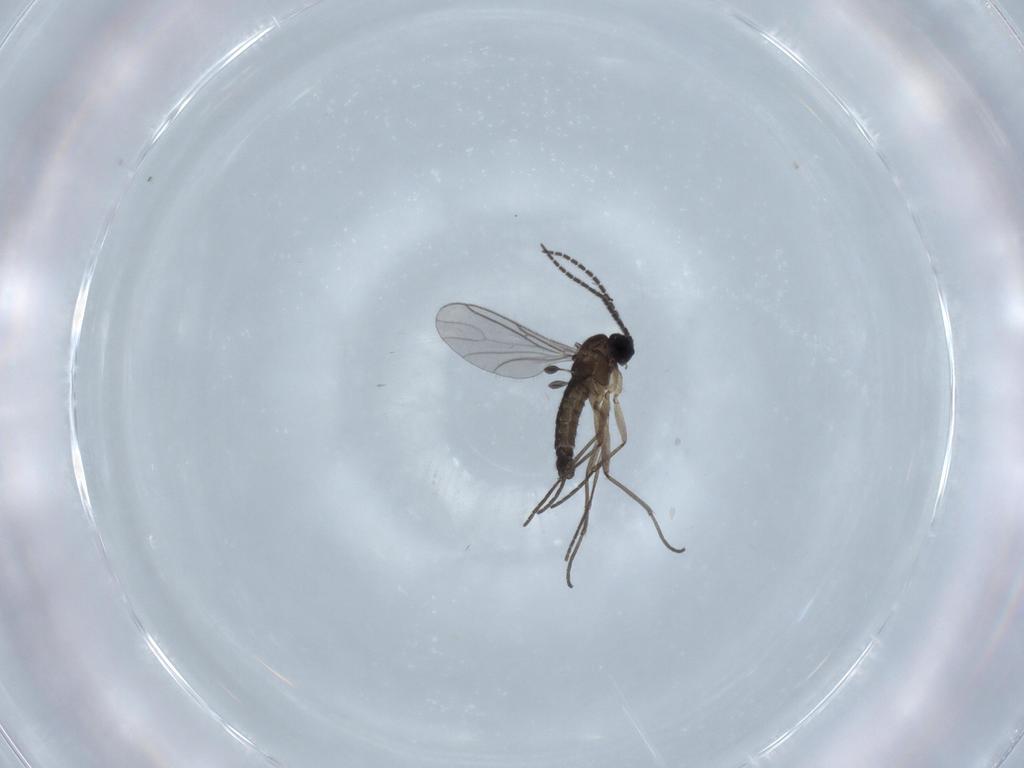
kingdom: Animalia
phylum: Arthropoda
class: Insecta
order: Diptera
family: Sciaridae
